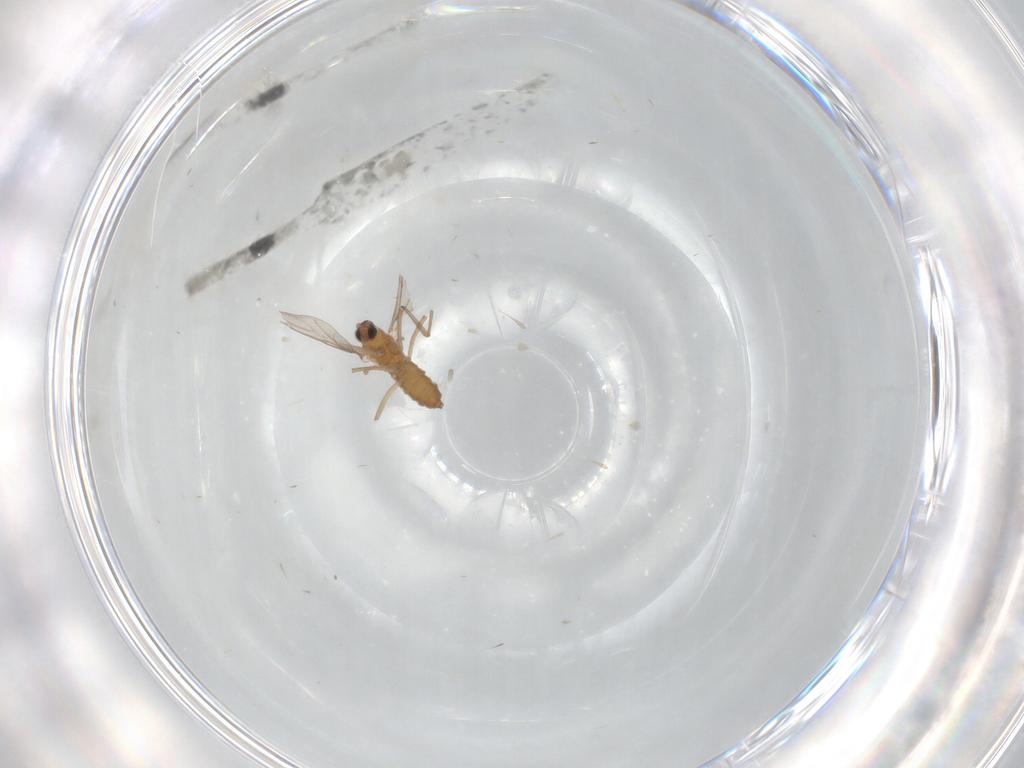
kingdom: Animalia
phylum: Arthropoda
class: Insecta
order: Diptera
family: Cecidomyiidae
